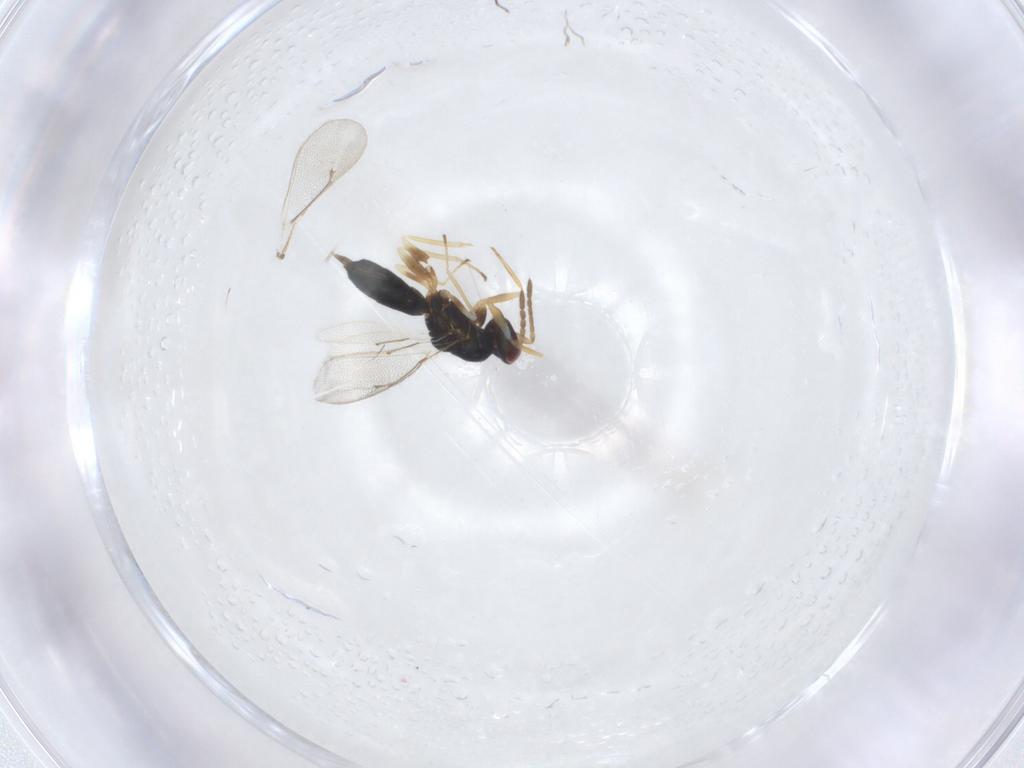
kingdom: Animalia
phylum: Arthropoda
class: Insecta
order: Hymenoptera
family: Eulophidae
